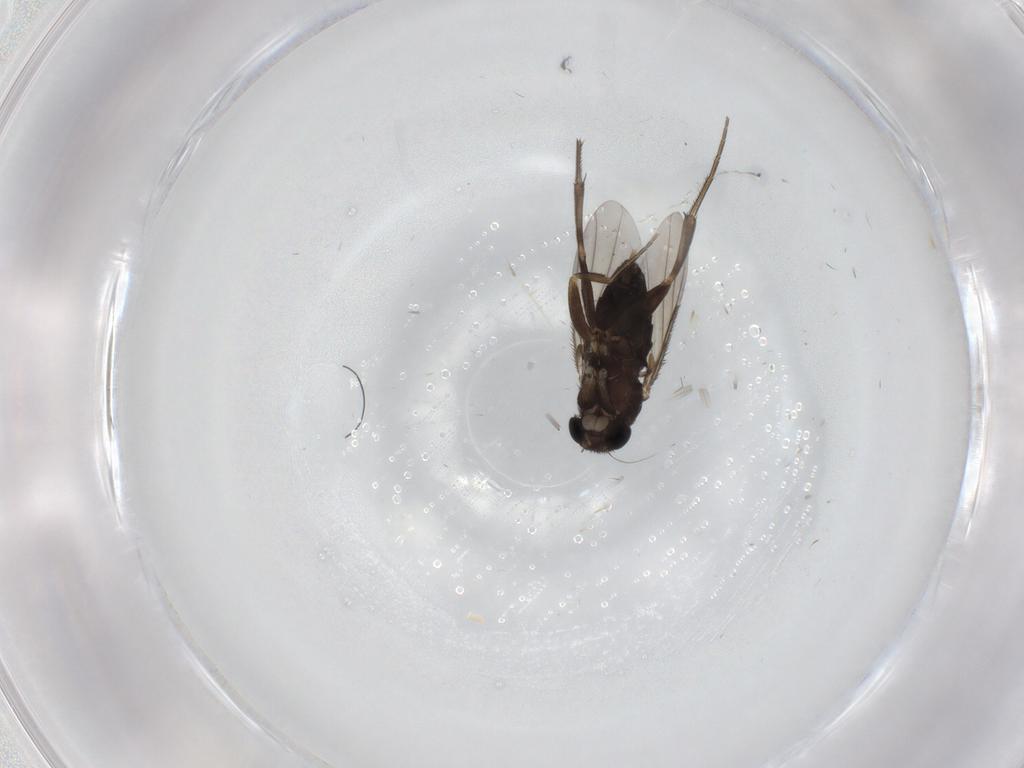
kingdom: Animalia
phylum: Arthropoda
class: Insecta
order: Diptera
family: Phoridae
